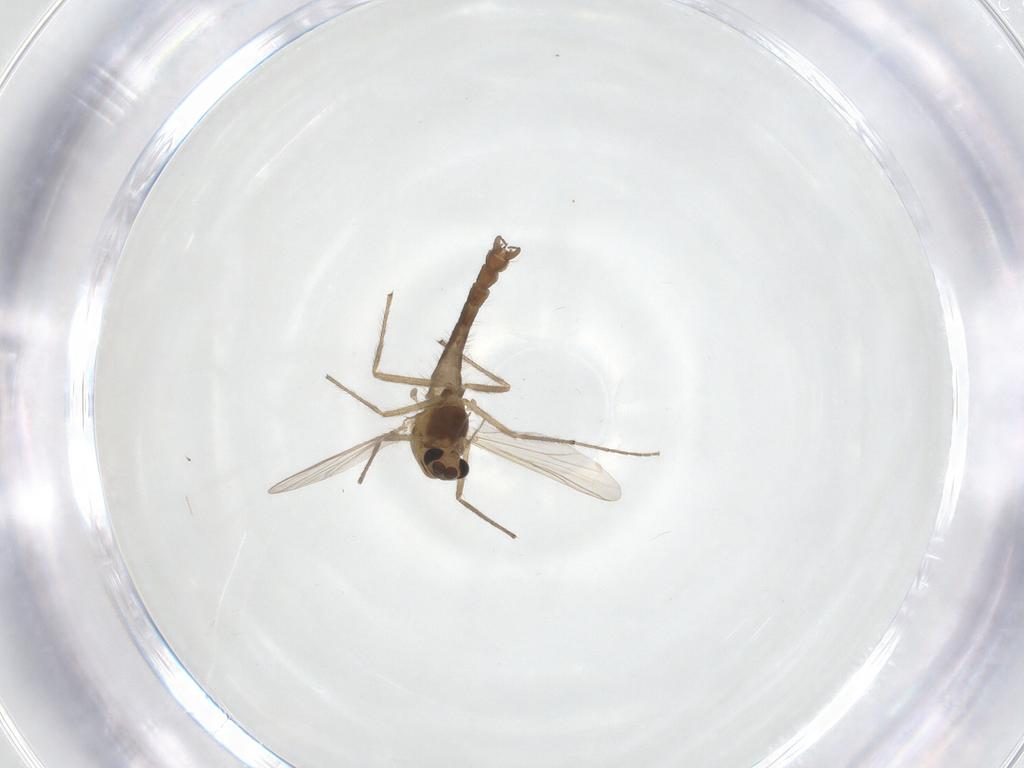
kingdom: Animalia
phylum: Arthropoda
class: Insecta
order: Diptera
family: Chironomidae
